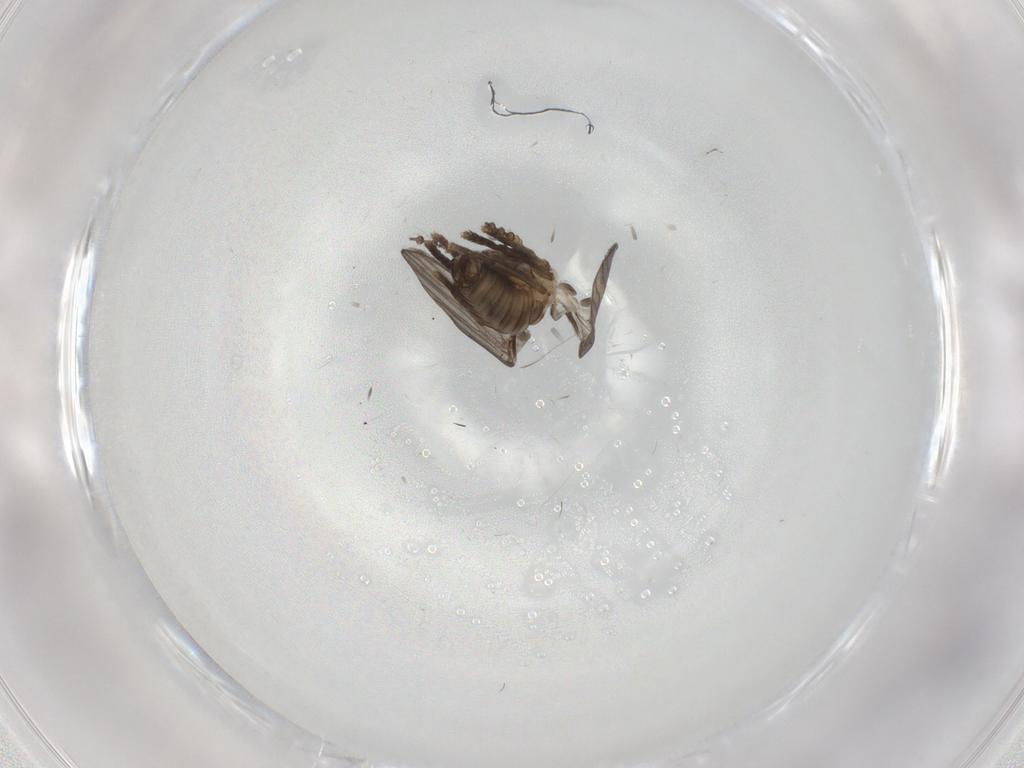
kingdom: Animalia
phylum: Arthropoda
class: Insecta
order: Diptera
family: Psychodidae
